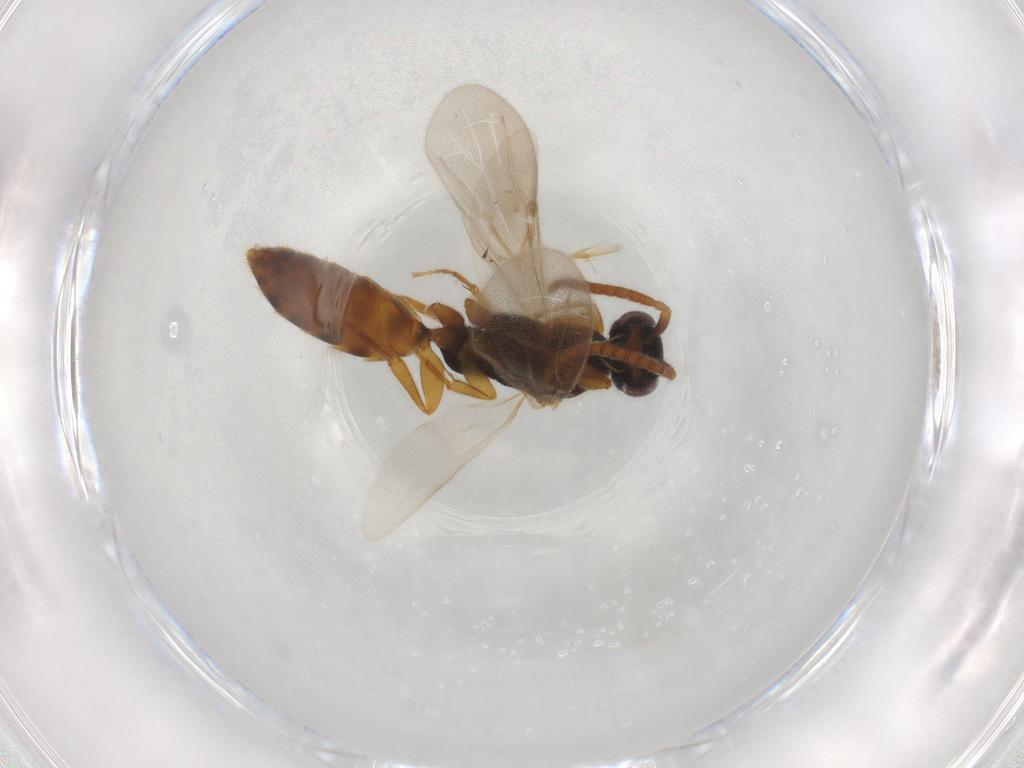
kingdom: Animalia
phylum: Arthropoda
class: Insecta
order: Hymenoptera
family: Formicidae
